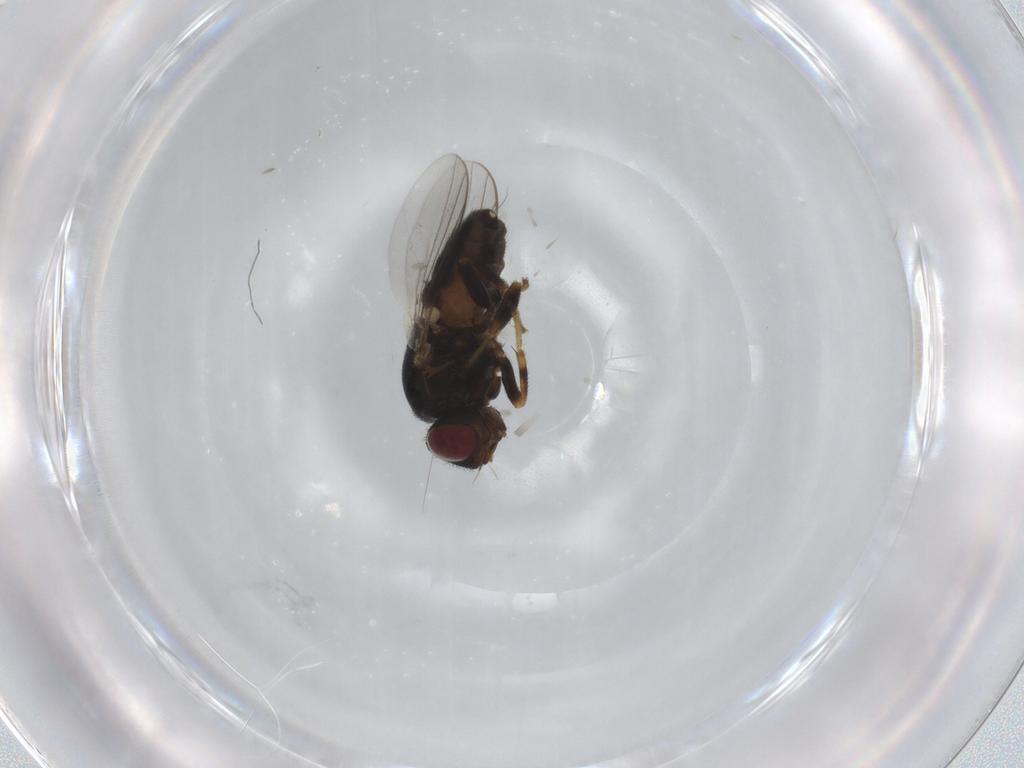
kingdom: Animalia
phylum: Arthropoda
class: Insecta
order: Diptera
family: Chloropidae
